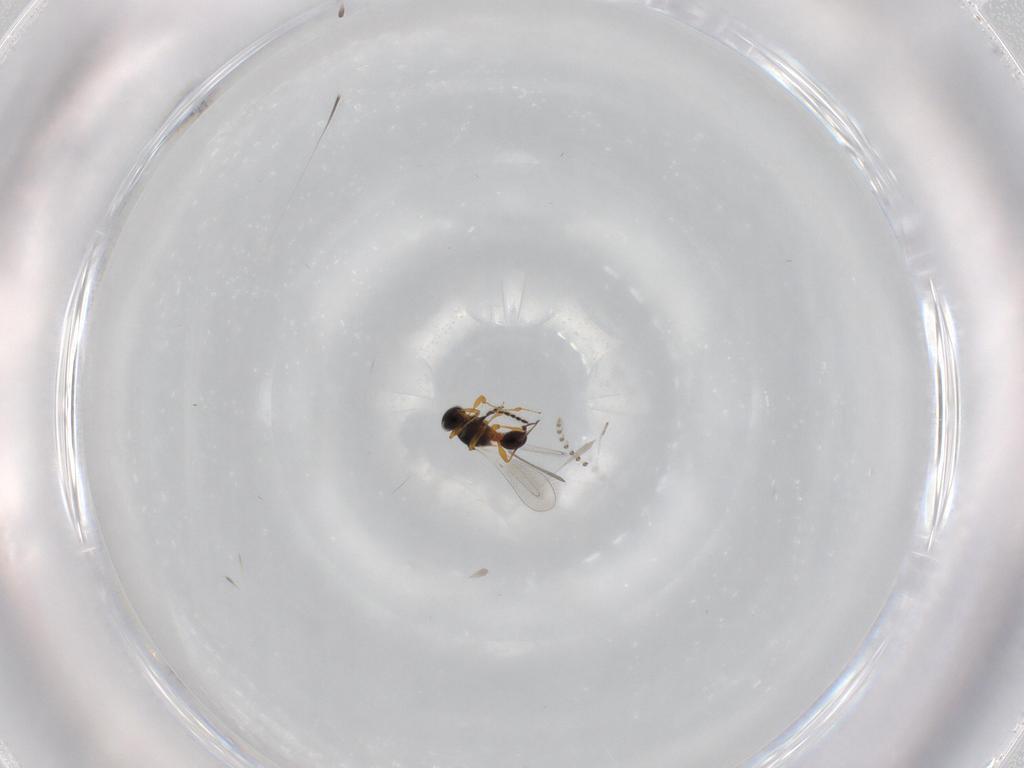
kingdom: Animalia
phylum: Arthropoda
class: Insecta
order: Hymenoptera
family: Platygastridae
